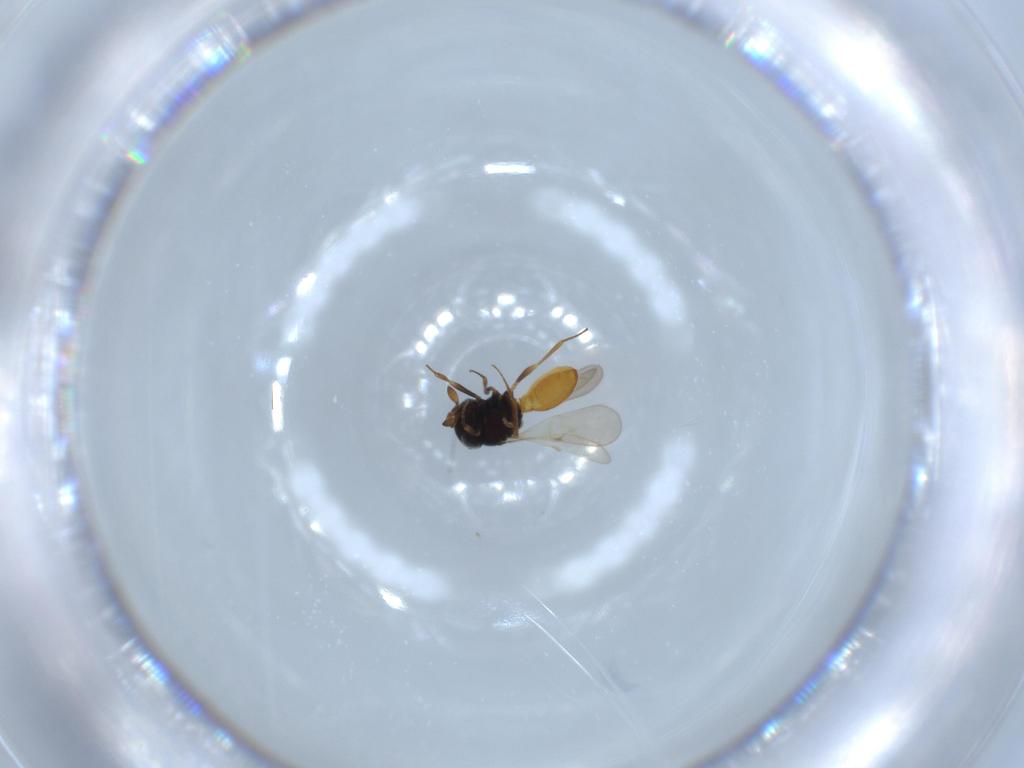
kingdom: Animalia
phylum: Arthropoda
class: Insecta
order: Hymenoptera
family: Scelionidae
